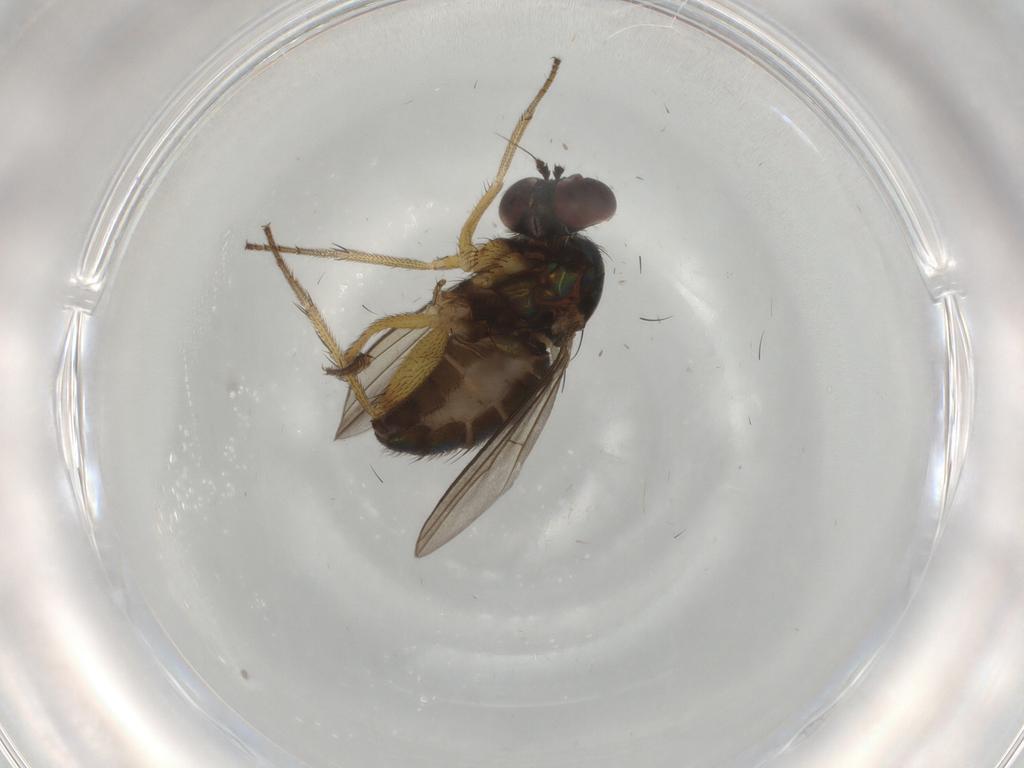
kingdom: Animalia
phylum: Arthropoda
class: Insecta
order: Diptera
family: Dolichopodidae
